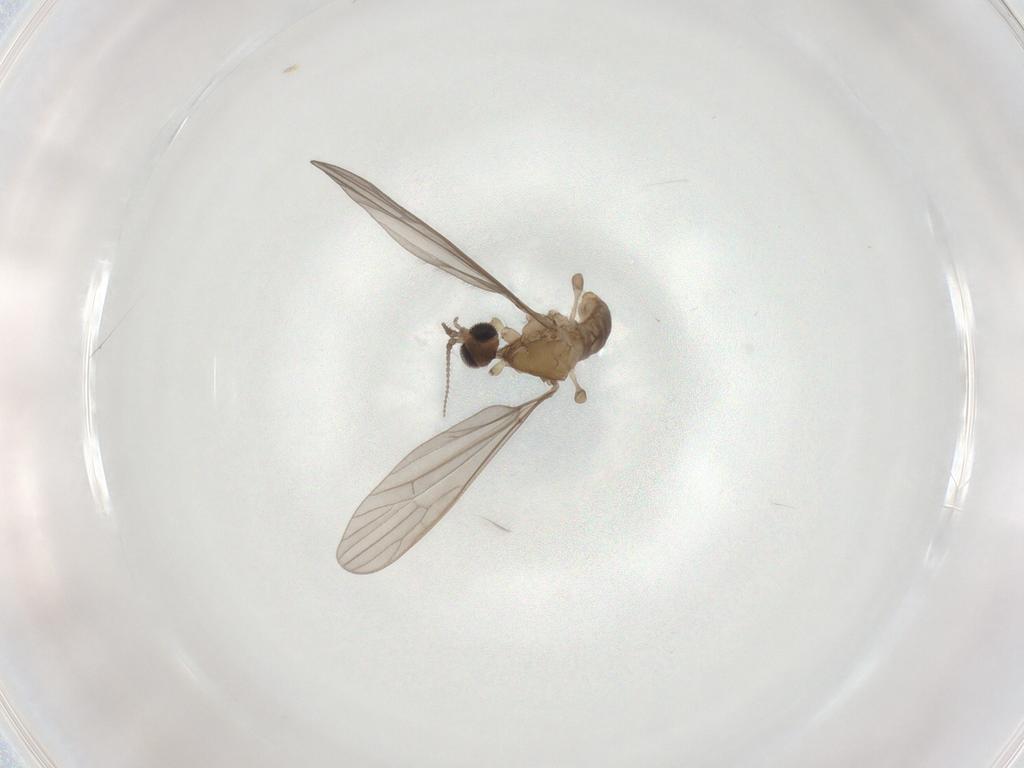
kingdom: Animalia
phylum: Arthropoda
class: Insecta
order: Diptera
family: Limoniidae
